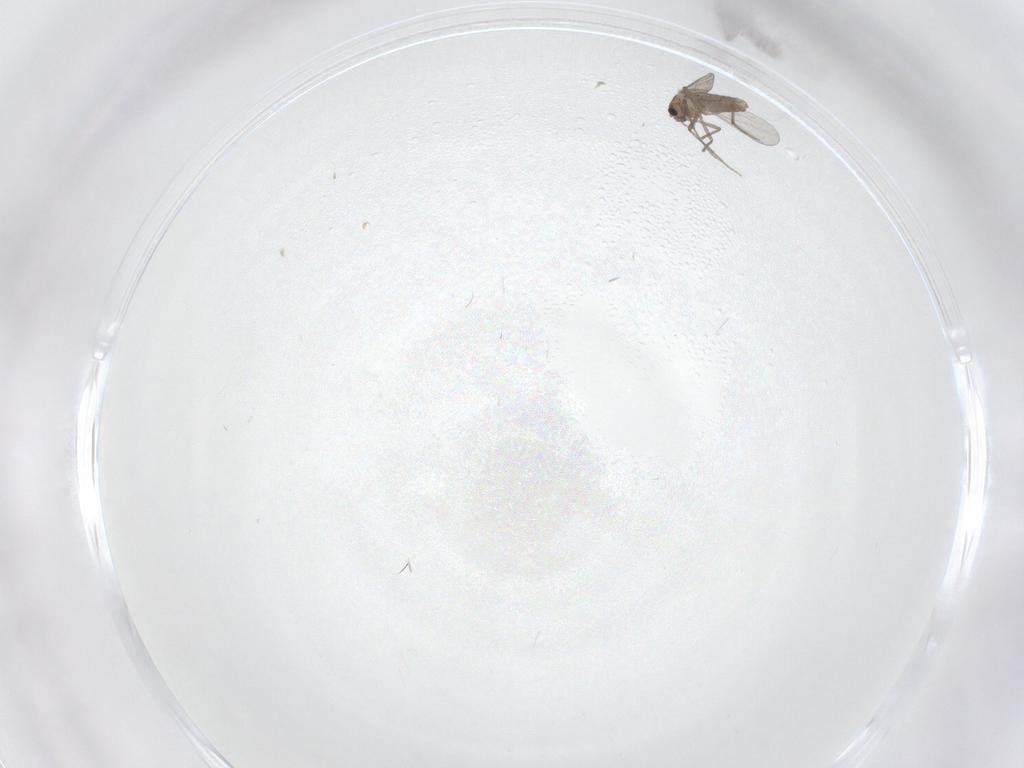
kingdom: Animalia
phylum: Arthropoda
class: Insecta
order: Diptera
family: Chironomidae
